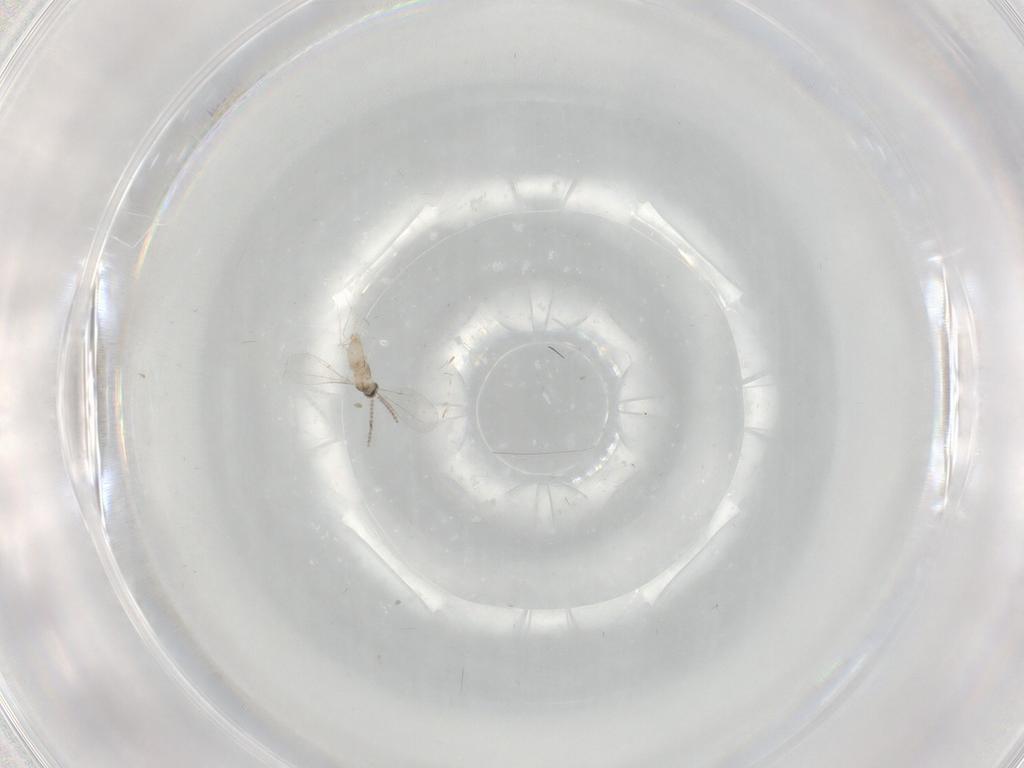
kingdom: Animalia
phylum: Arthropoda
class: Insecta
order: Diptera
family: Cecidomyiidae
